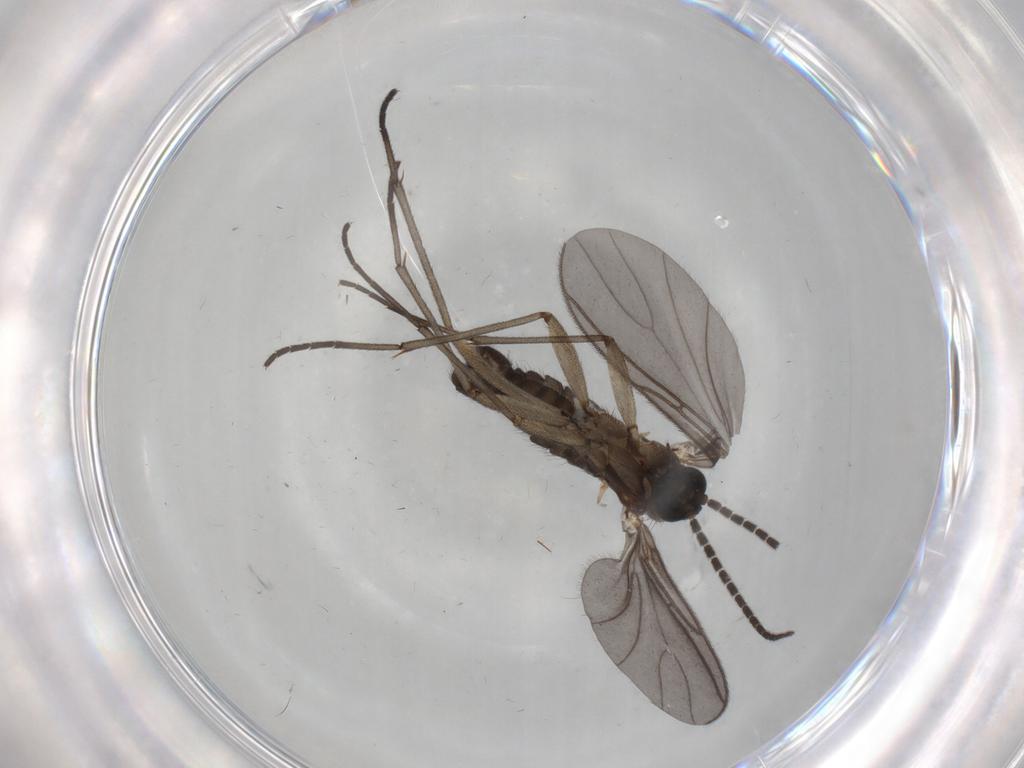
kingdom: Animalia
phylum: Arthropoda
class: Insecta
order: Diptera
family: Sciaridae
